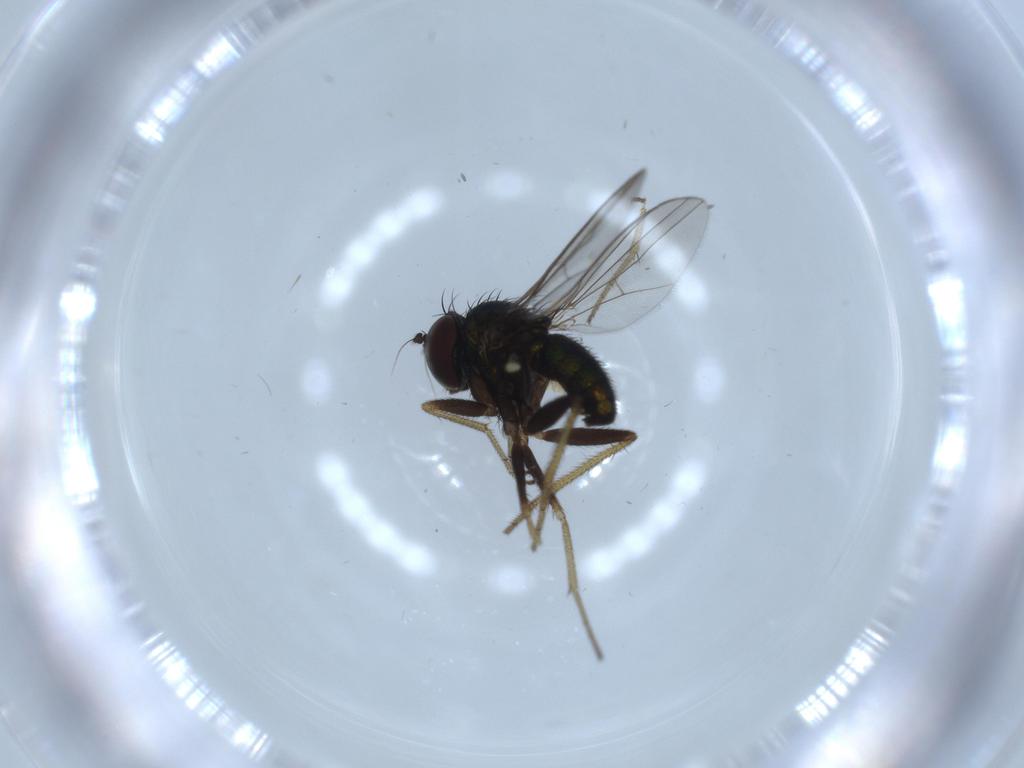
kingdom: Animalia
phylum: Arthropoda
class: Insecta
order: Diptera
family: Dolichopodidae
